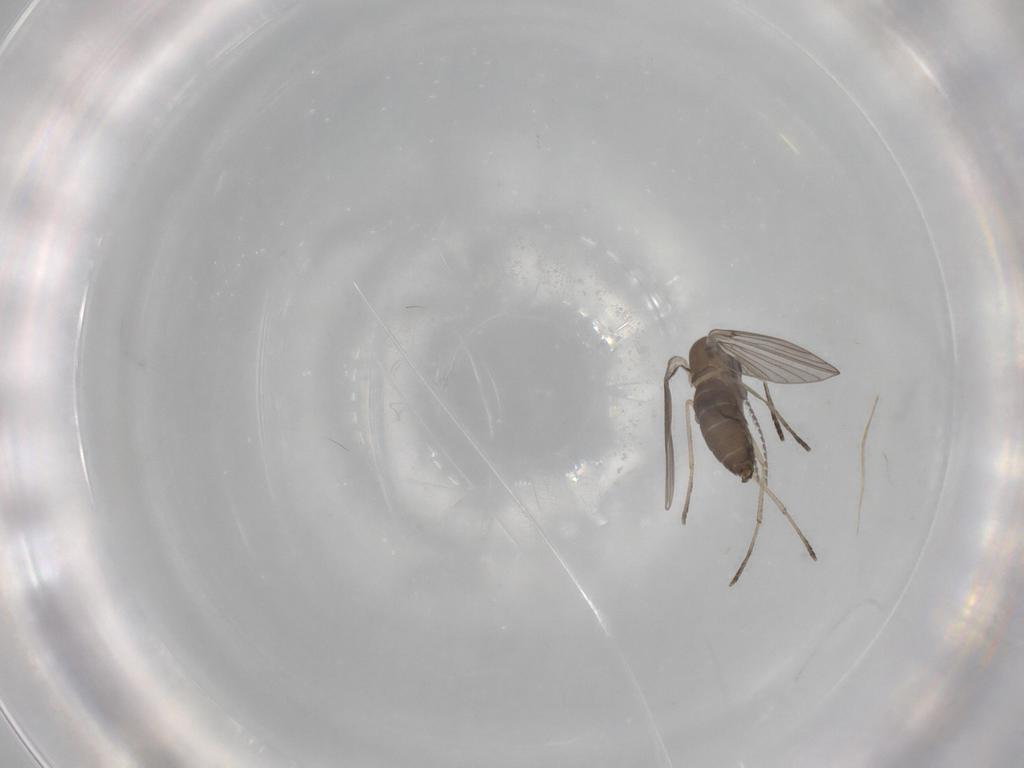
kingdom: Animalia
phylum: Arthropoda
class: Insecta
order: Diptera
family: Psychodidae
